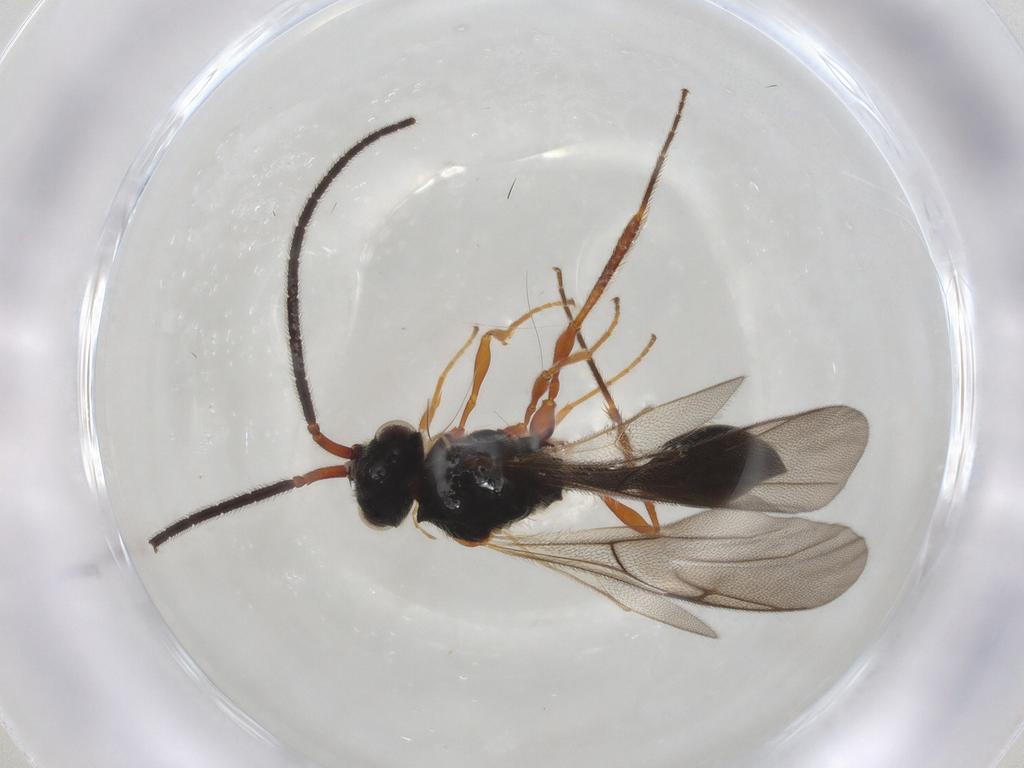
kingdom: Animalia
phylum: Arthropoda
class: Insecta
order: Hymenoptera
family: Diapriidae
